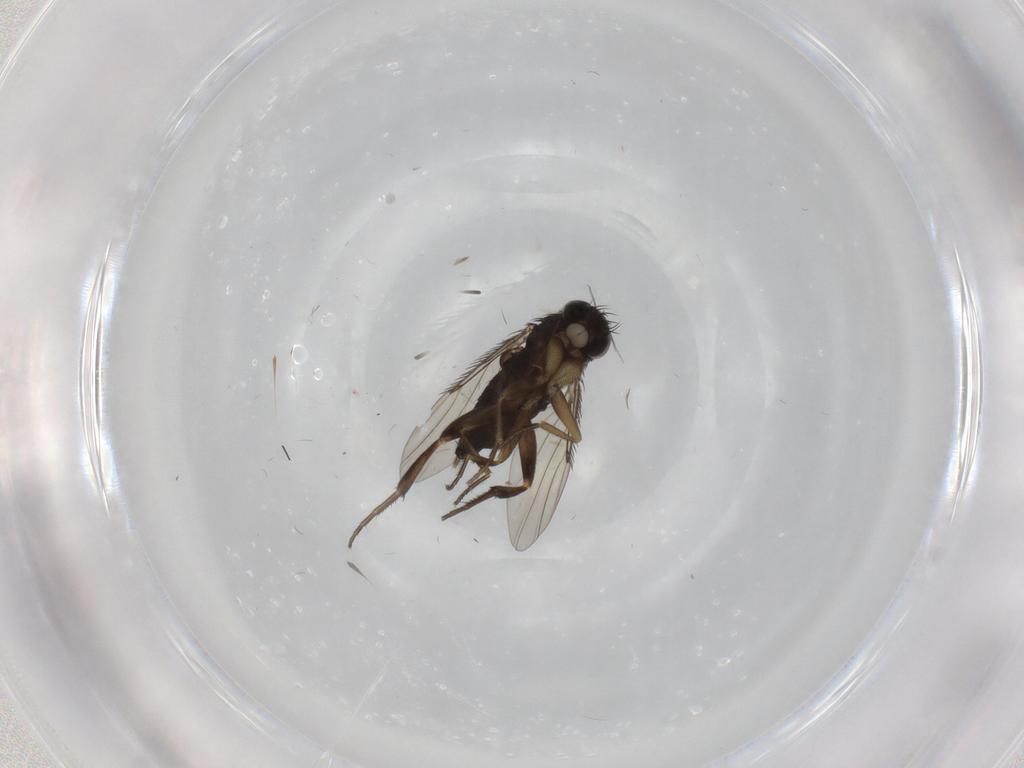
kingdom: Animalia
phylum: Arthropoda
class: Insecta
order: Diptera
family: Phoridae
